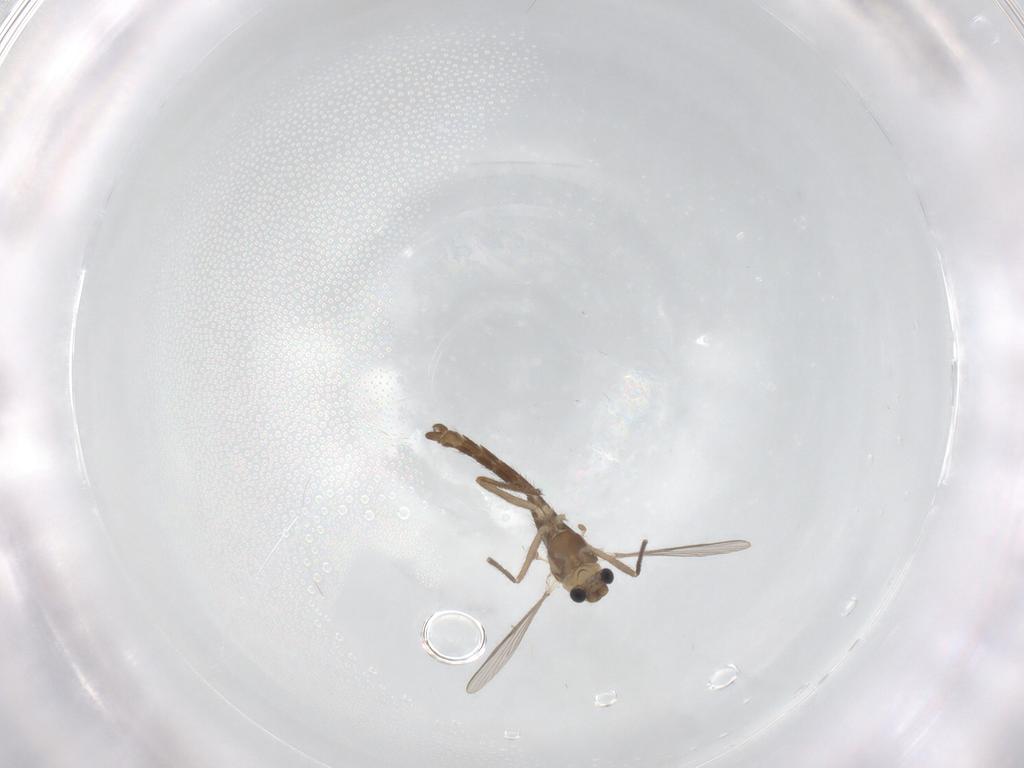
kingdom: Animalia
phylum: Arthropoda
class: Insecta
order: Diptera
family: Chironomidae
